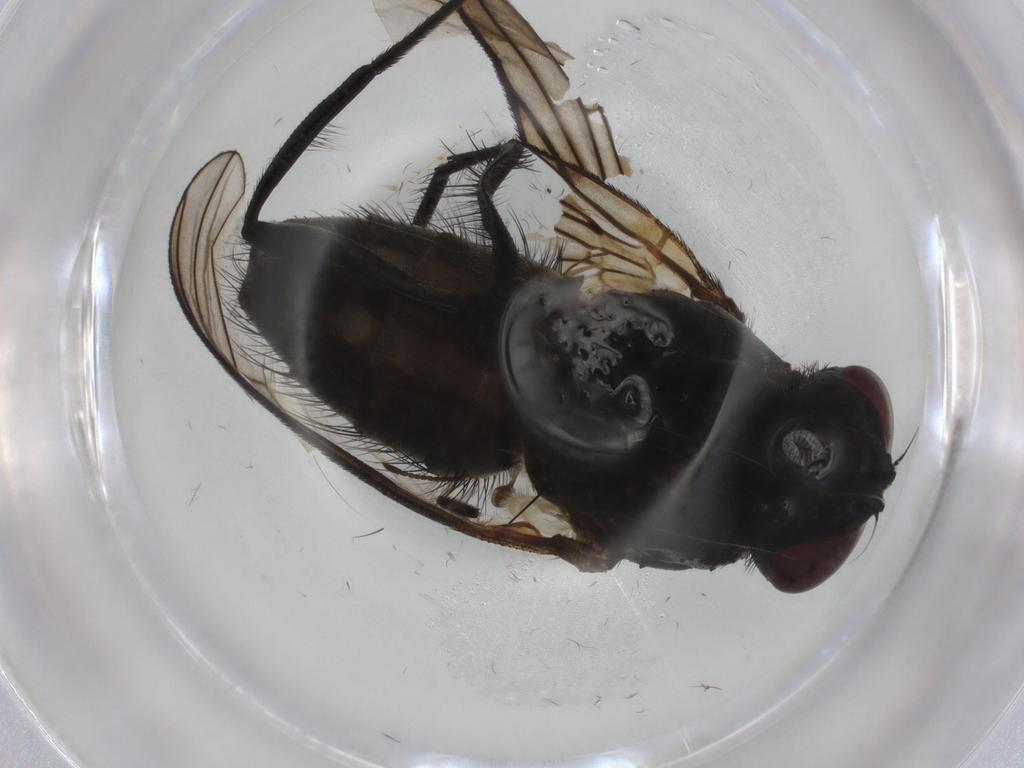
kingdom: Animalia
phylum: Arthropoda
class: Insecta
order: Diptera
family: Muscidae
